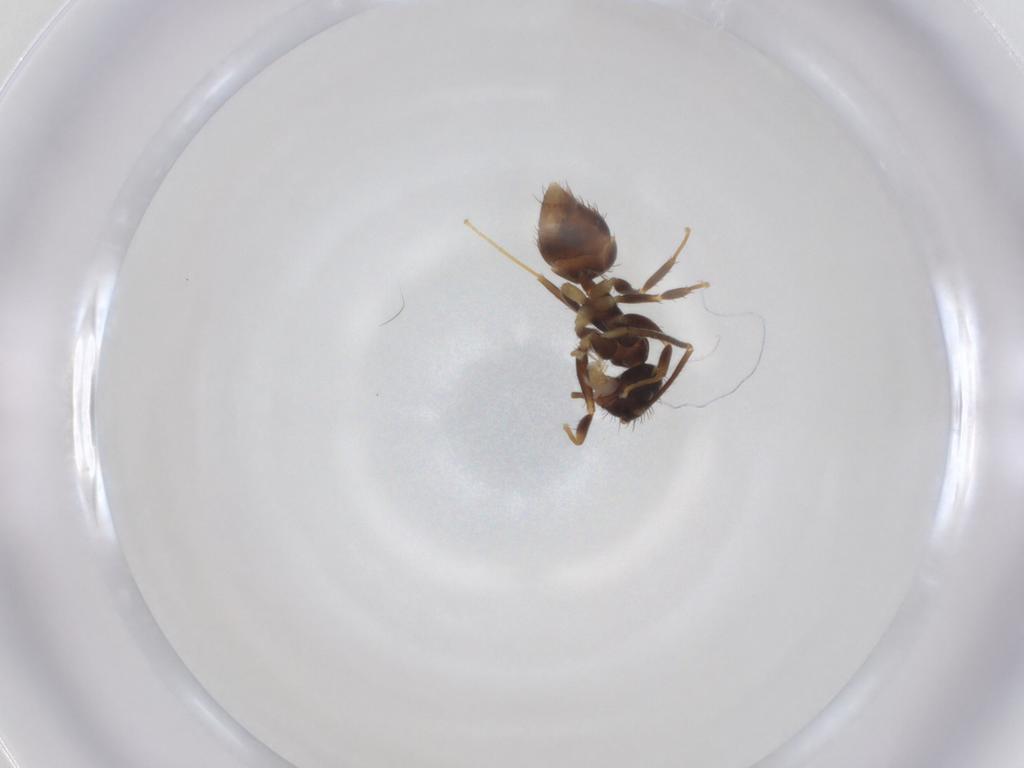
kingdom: Animalia
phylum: Arthropoda
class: Insecta
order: Hymenoptera
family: Formicidae
